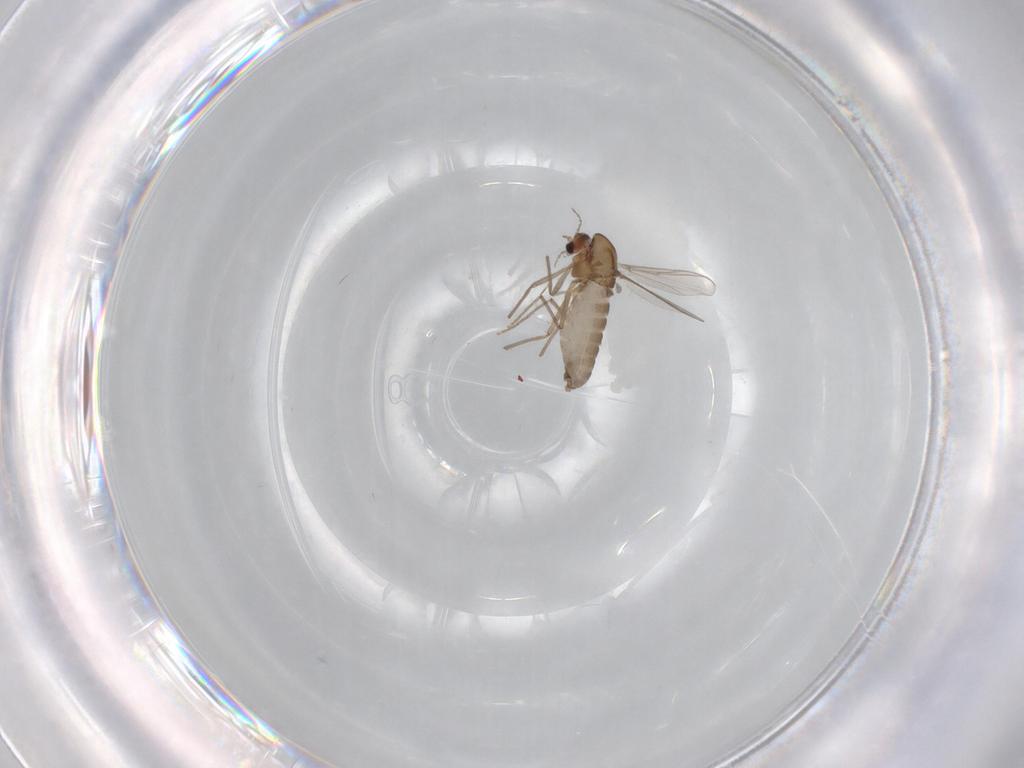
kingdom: Animalia
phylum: Arthropoda
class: Insecta
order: Diptera
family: Chironomidae
